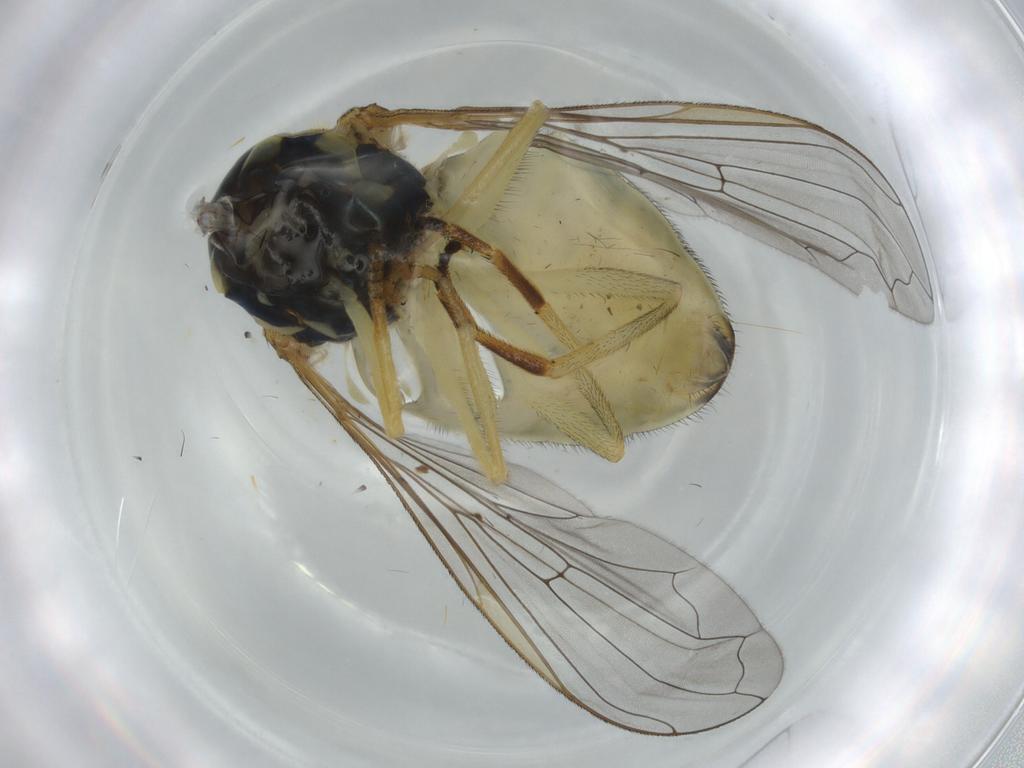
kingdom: Animalia
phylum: Arthropoda
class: Insecta
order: Diptera
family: Syrphidae
